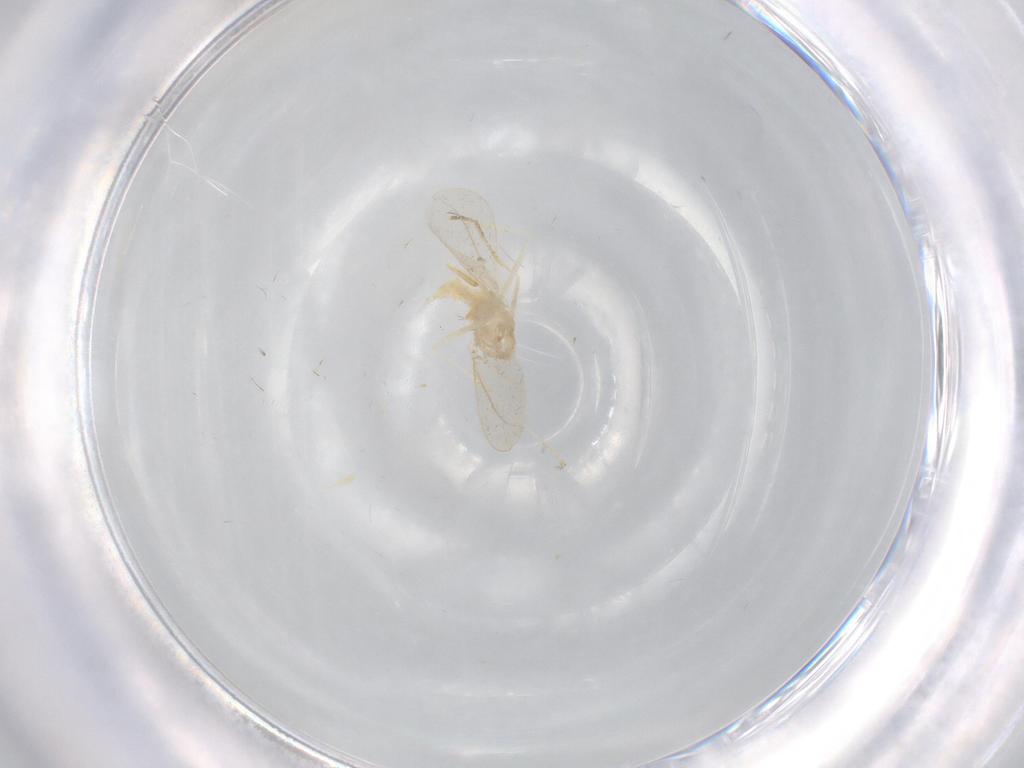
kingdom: Animalia
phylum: Arthropoda
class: Insecta
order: Diptera
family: Cecidomyiidae
